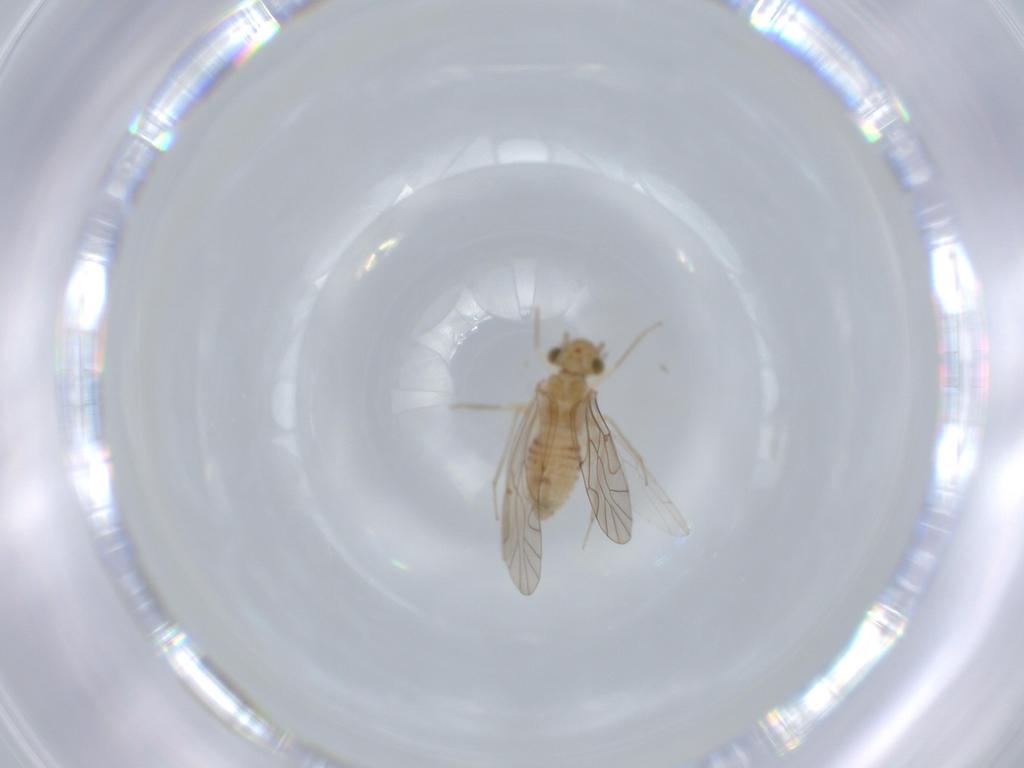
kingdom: Animalia
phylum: Arthropoda
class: Insecta
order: Psocodea
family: Lachesillidae
